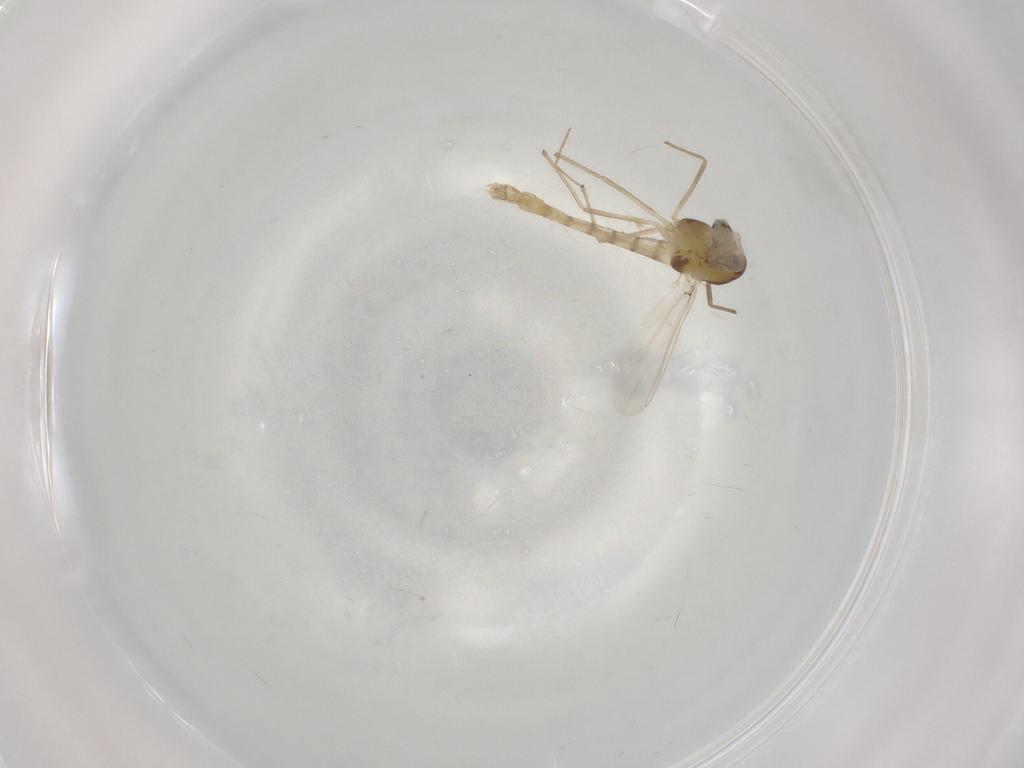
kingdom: Animalia
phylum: Arthropoda
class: Insecta
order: Diptera
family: Chironomidae
